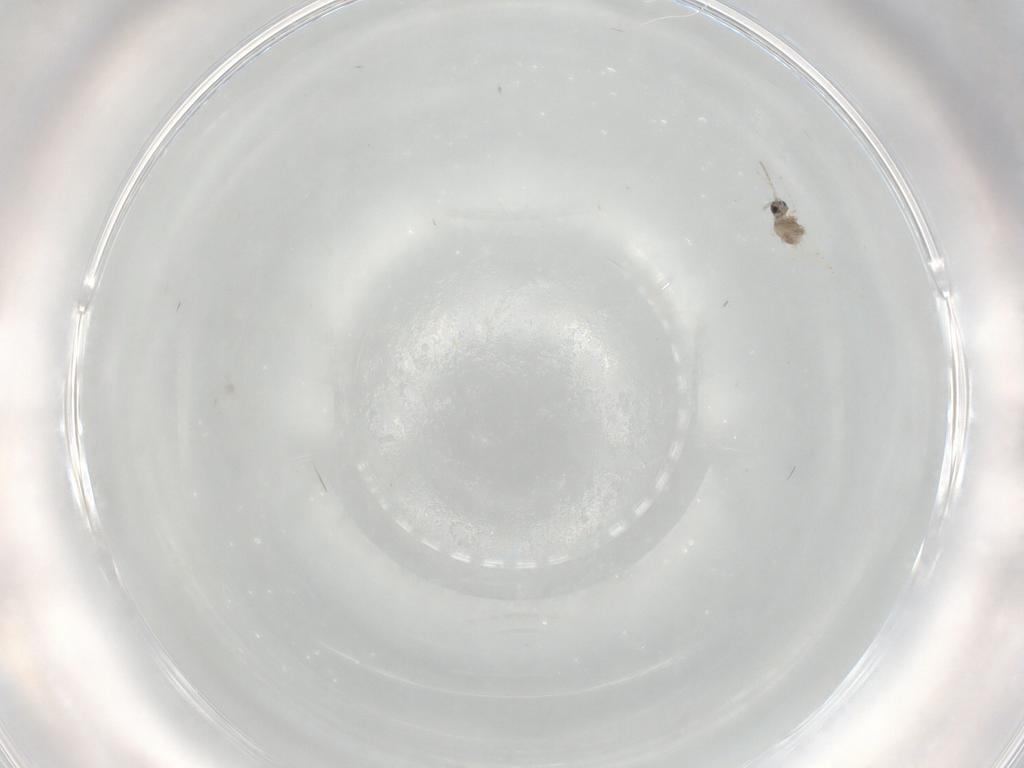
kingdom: Animalia
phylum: Arthropoda
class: Insecta
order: Diptera
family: Cecidomyiidae
